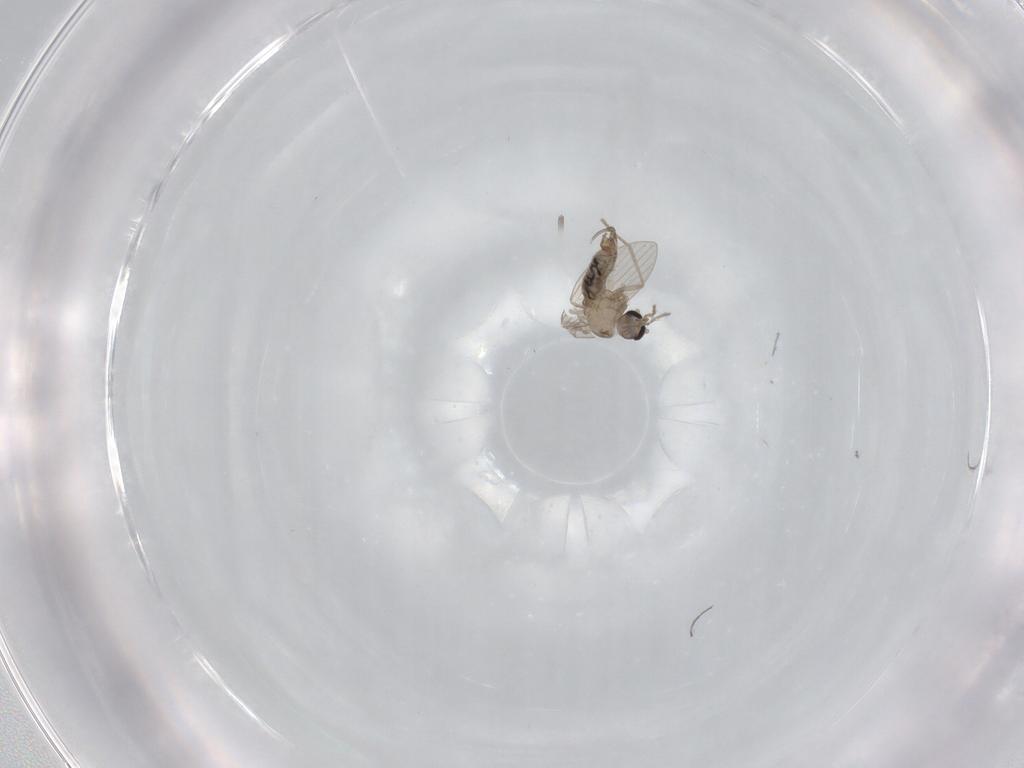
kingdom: Animalia
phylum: Arthropoda
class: Insecta
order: Diptera
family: Psychodidae
